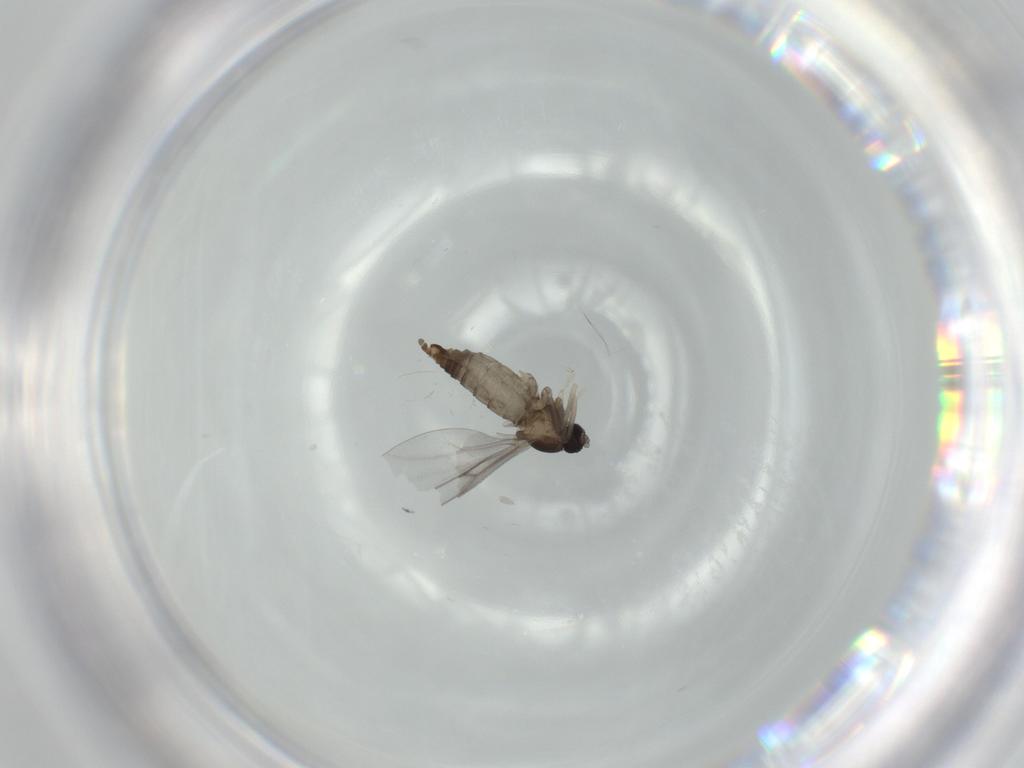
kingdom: Animalia
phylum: Arthropoda
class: Insecta
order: Diptera
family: Cecidomyiidae
